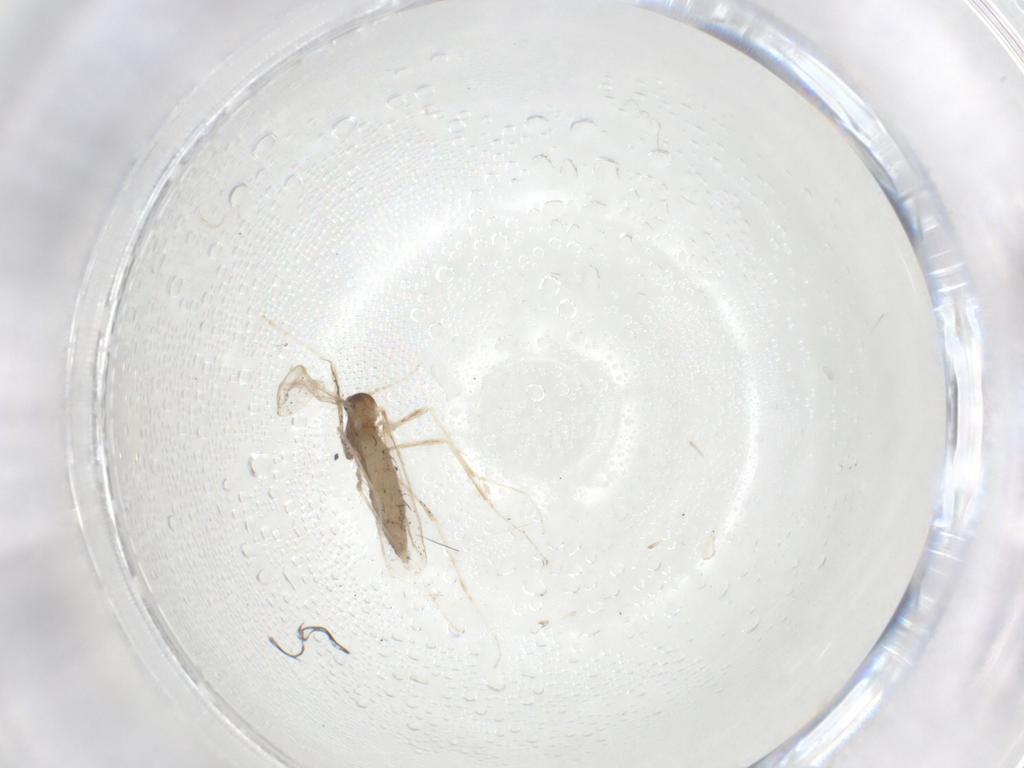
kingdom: Animalia
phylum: Arthropoda
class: Insecta
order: Diptera
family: Cecidomyiidae
